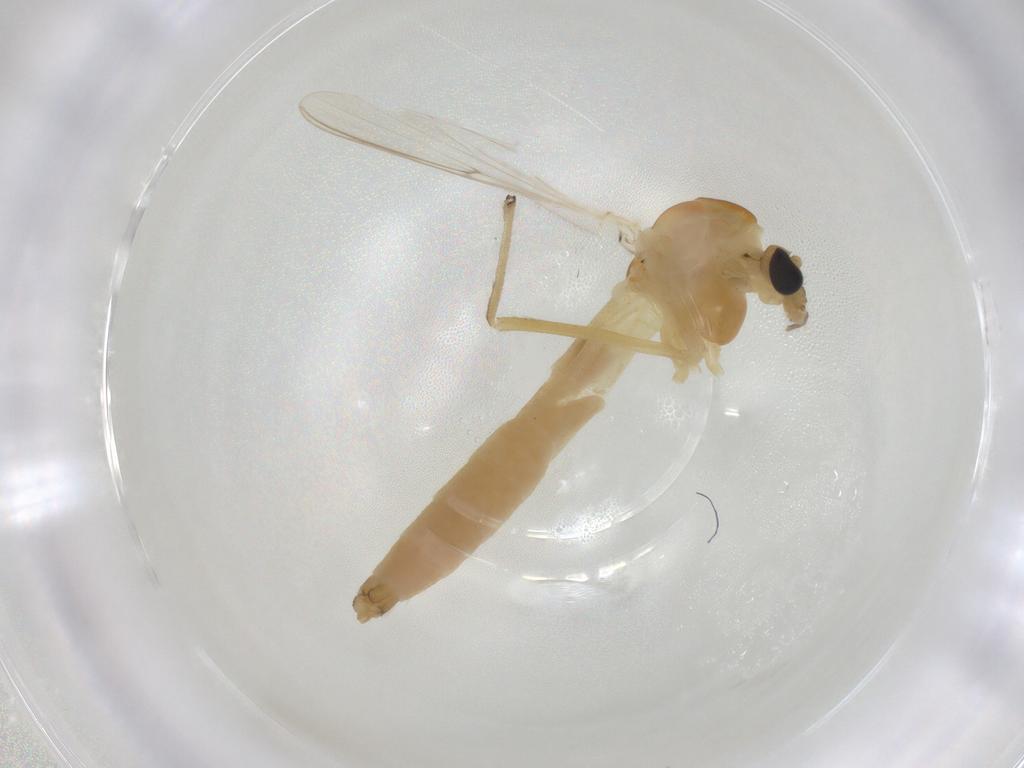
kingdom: Animalia
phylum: Arthropoda
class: Insecta
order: Diptera
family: Chironomidae
